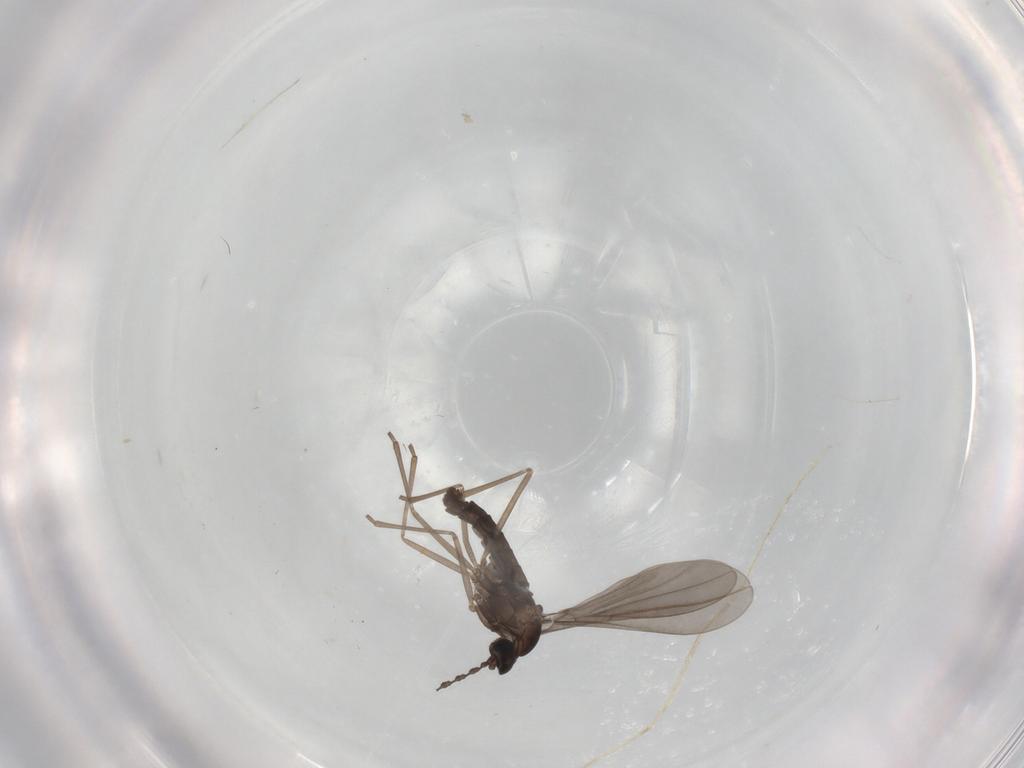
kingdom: Animalia
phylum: Arthropoda
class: Insecta
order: Diptera
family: Cecidomyiidae
